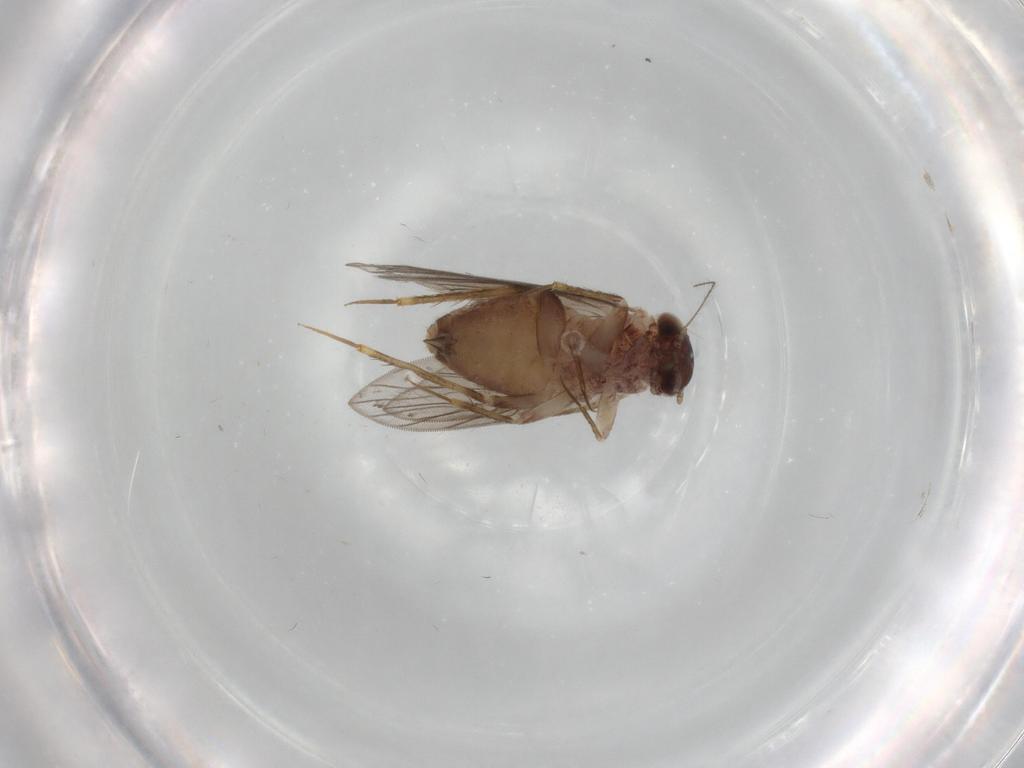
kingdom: Animalia
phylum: Arthropoda
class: Insecta
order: Psocodea
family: Lepidopsocidae
